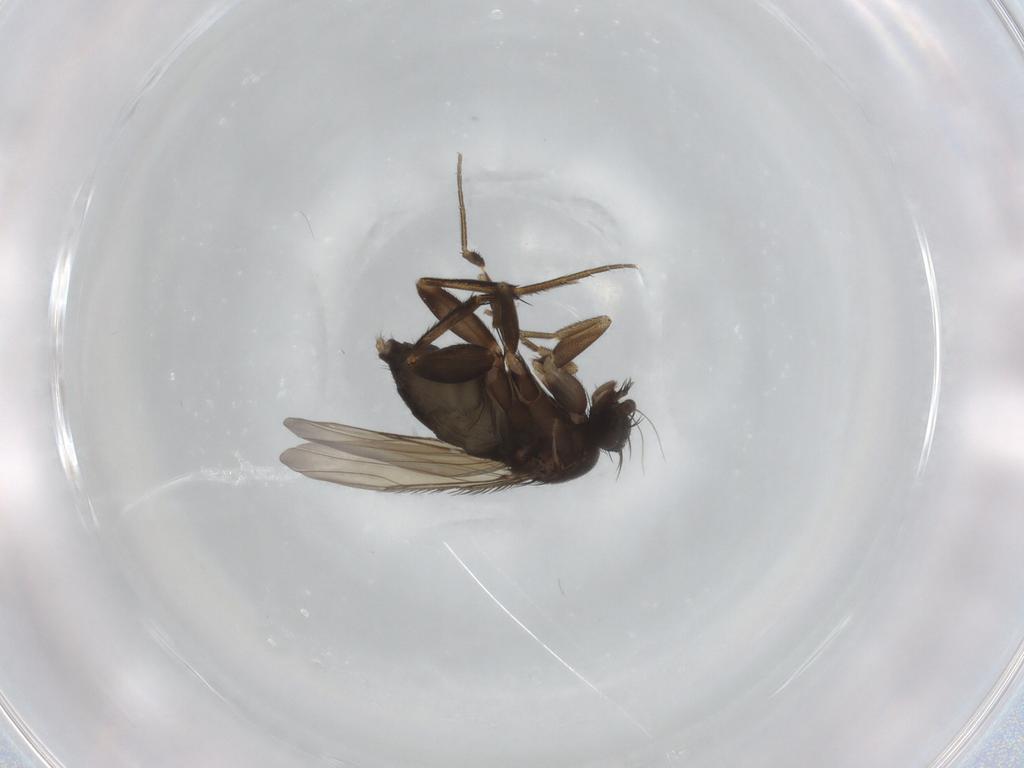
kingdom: Animalia
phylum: Arthropoda
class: Insecta
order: Diptera
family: Phoridae
